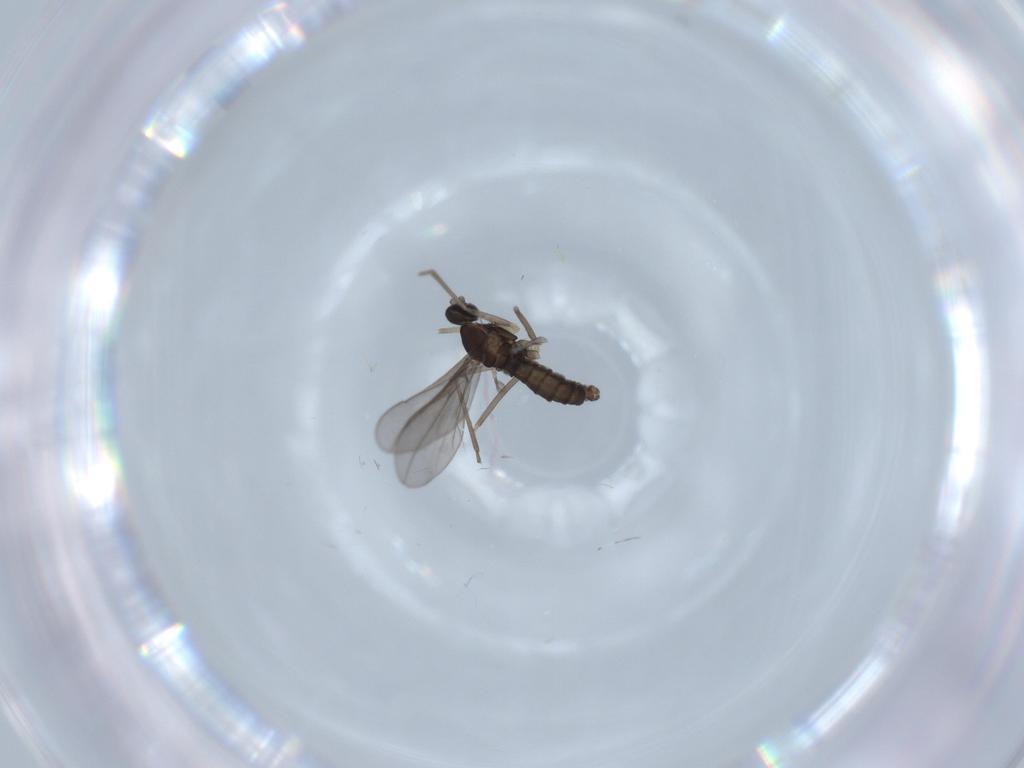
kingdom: Animalia
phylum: Arthropoda
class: Insecta
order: Diptera
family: Cecidomyiidae
